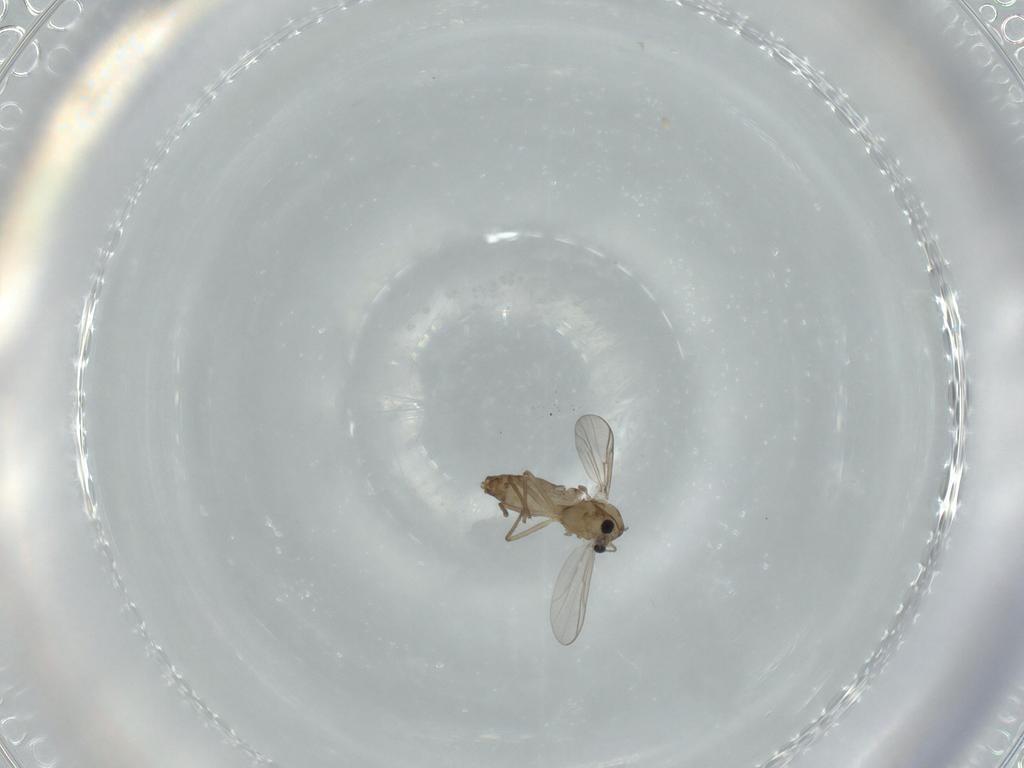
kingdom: Animalia
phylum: Arthropoda
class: Insecta
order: Diptera
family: Chironomidae
